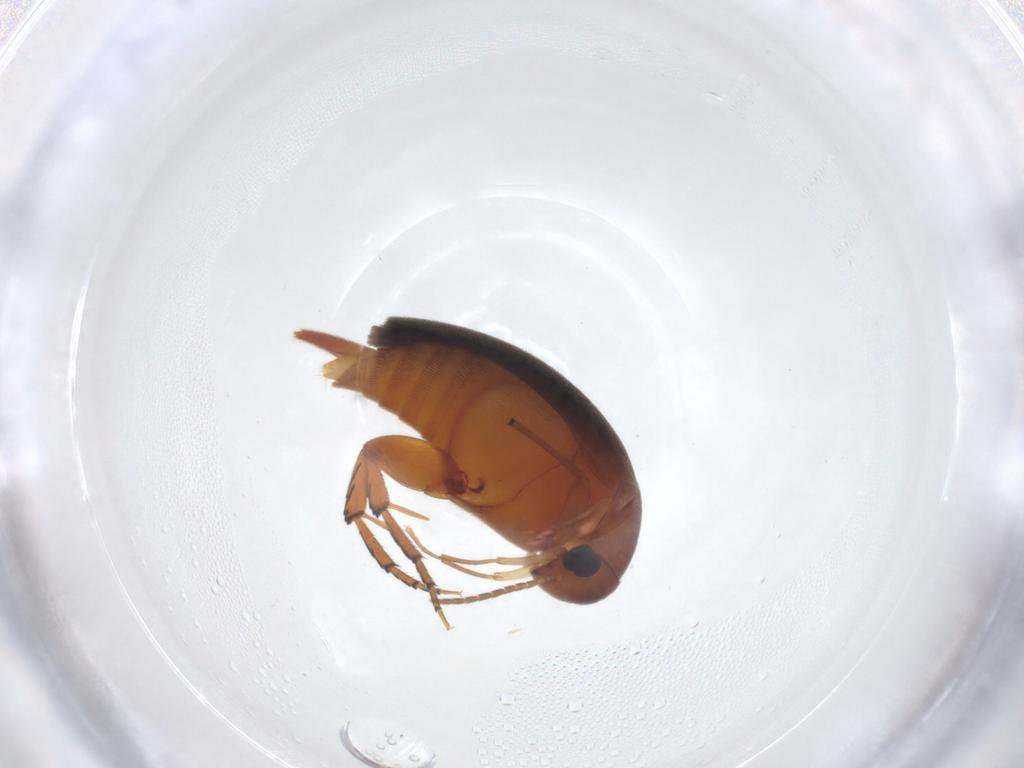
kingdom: Animalia
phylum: Arthropoda
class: Insecta
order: Coleoptera
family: Mordellidae
